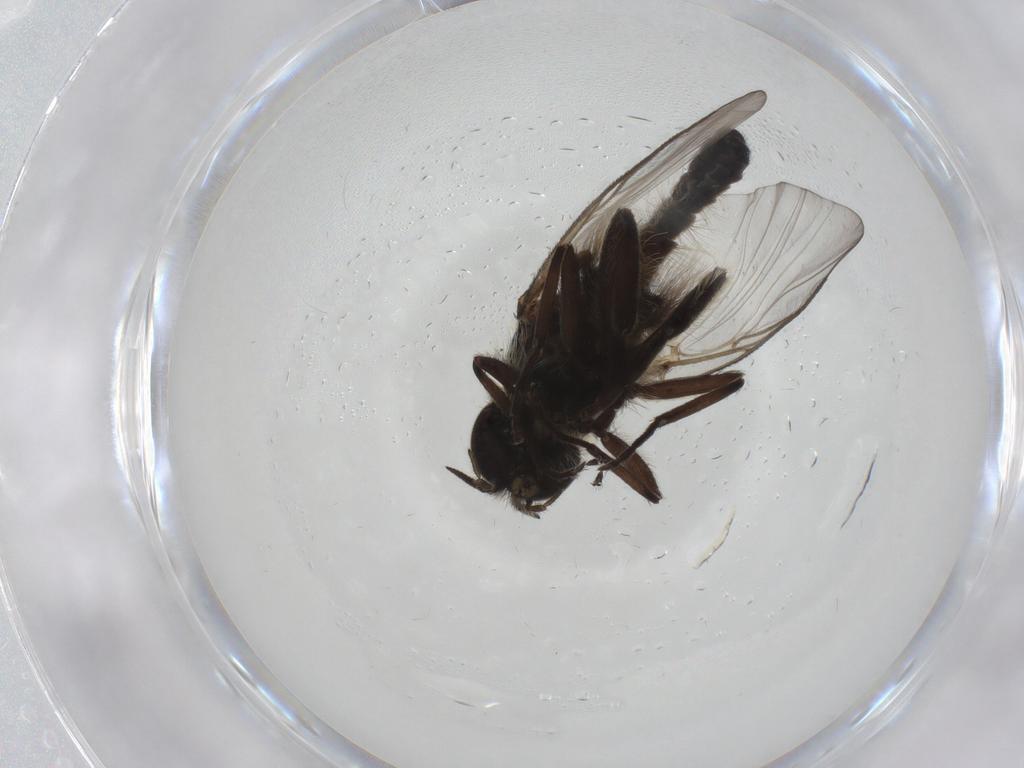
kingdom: Animalia
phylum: Arthropoda
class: Insecta
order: Diptera
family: Simuliidae
